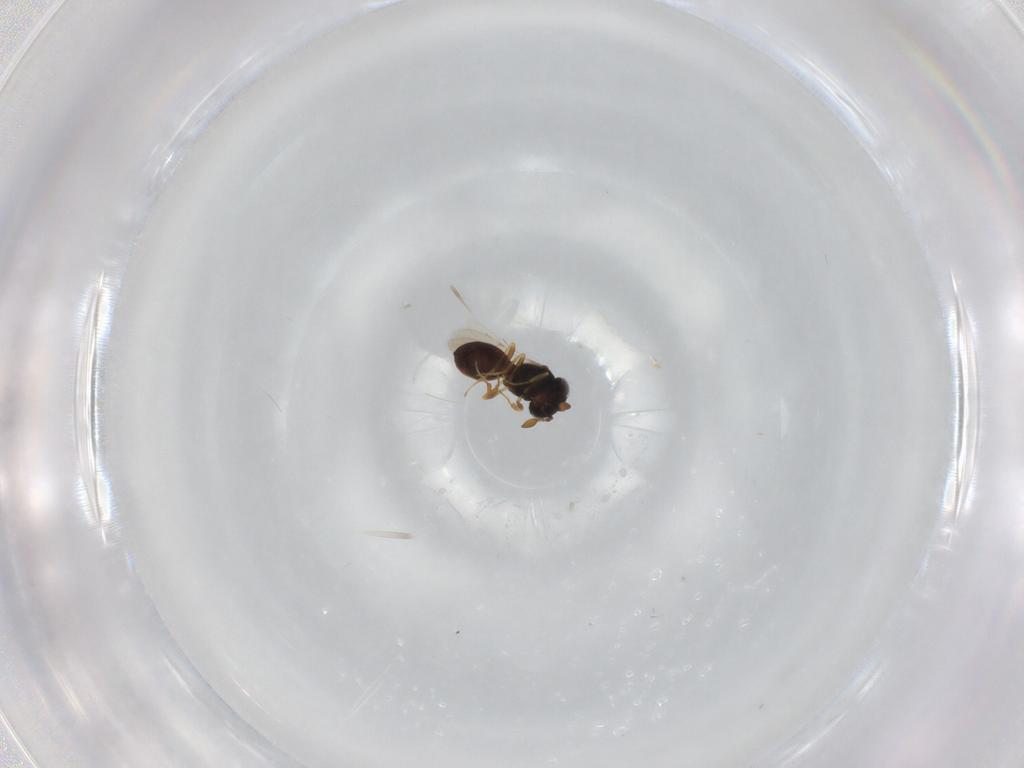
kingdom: Animalia
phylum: Arthropoda
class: Insecta
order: Hymenoptera
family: Scelionidae
